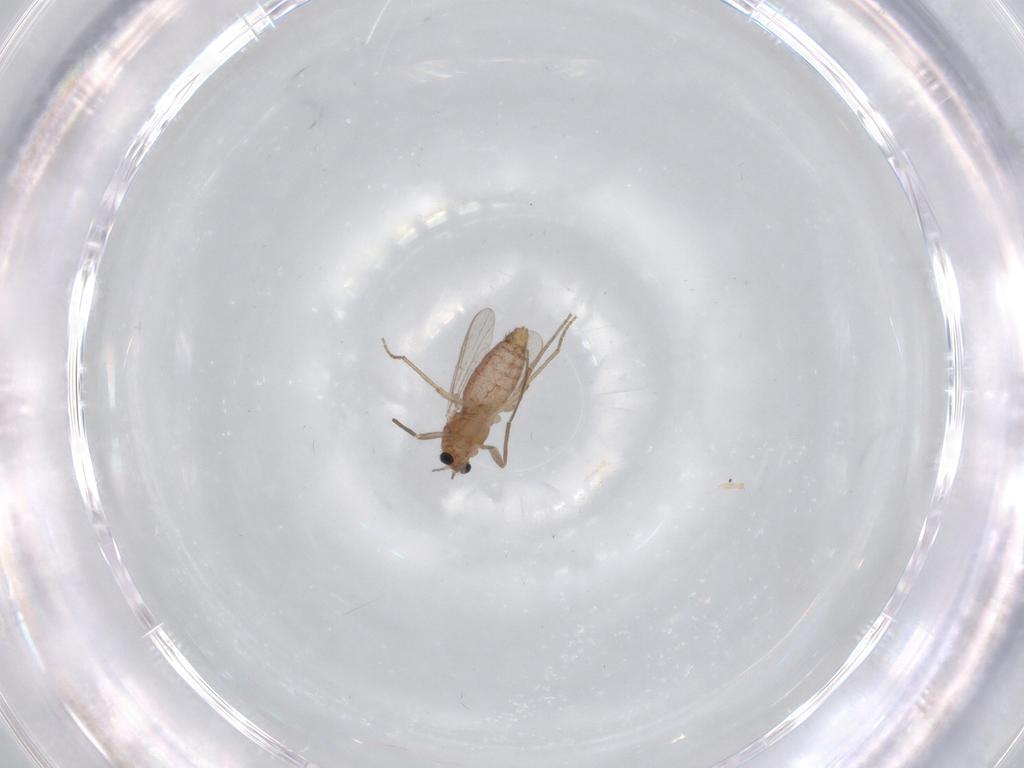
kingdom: Animalia
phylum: Arthropoda
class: Insecta
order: Diptera
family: Chironomidae
